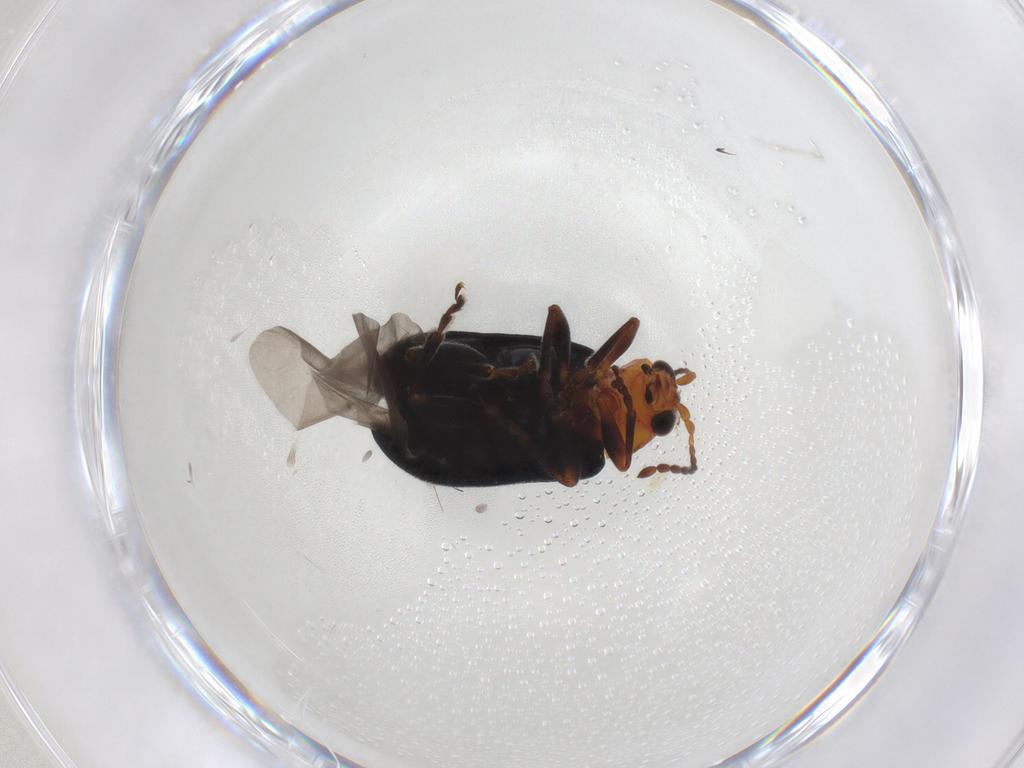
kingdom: Animalia
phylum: Arthropoda
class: Insecta
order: Coleoptera
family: Chrysomelidae
